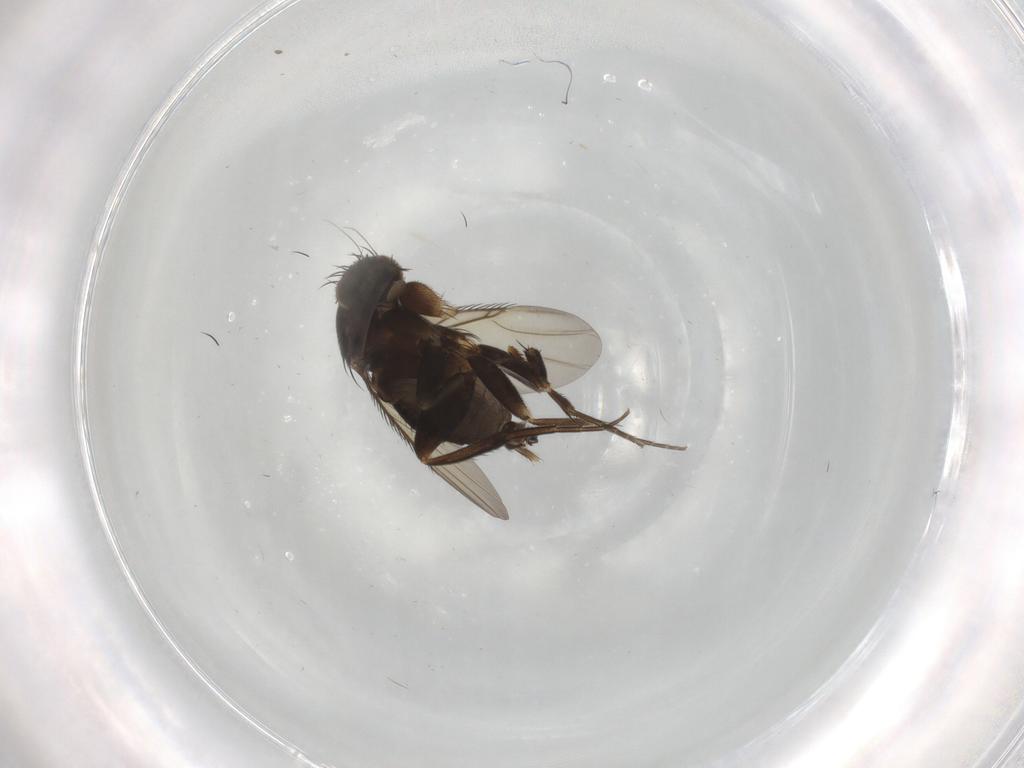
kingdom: Animalia
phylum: Arthropoda
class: Insecta
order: Diptera
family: Phoridae
